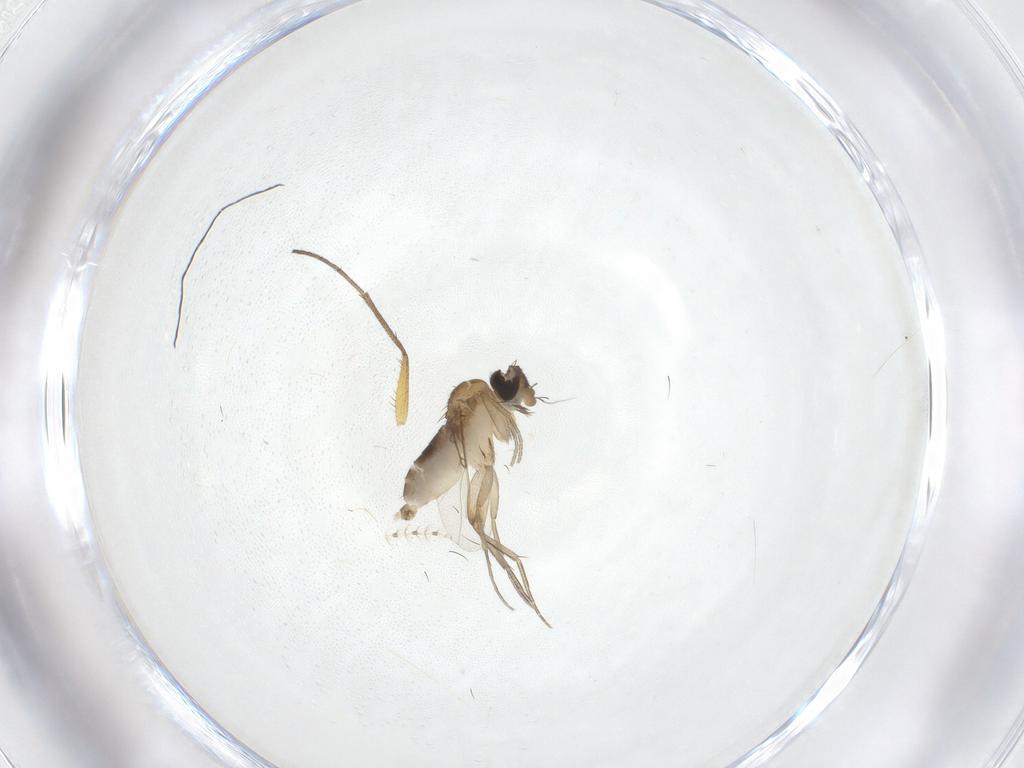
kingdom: Animalia
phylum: Arthropoda
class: Insecta
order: Diptera
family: Phoridae
